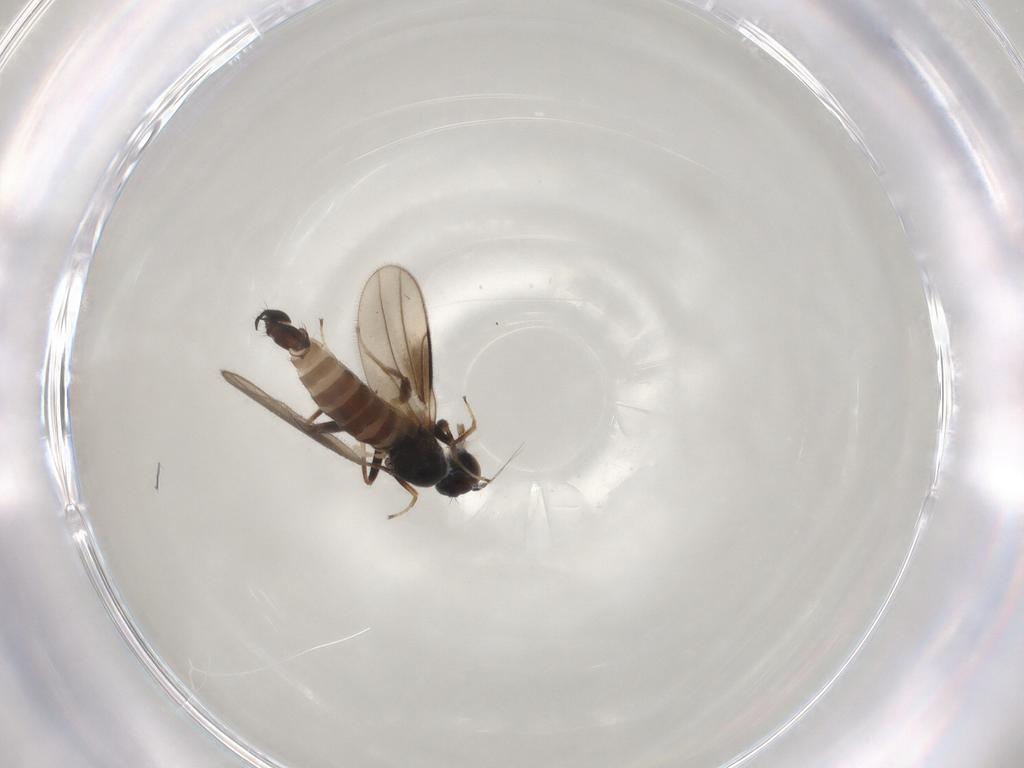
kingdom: Animalia
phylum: Arthropoda
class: Insecta
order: Diptera
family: Hybotidae
